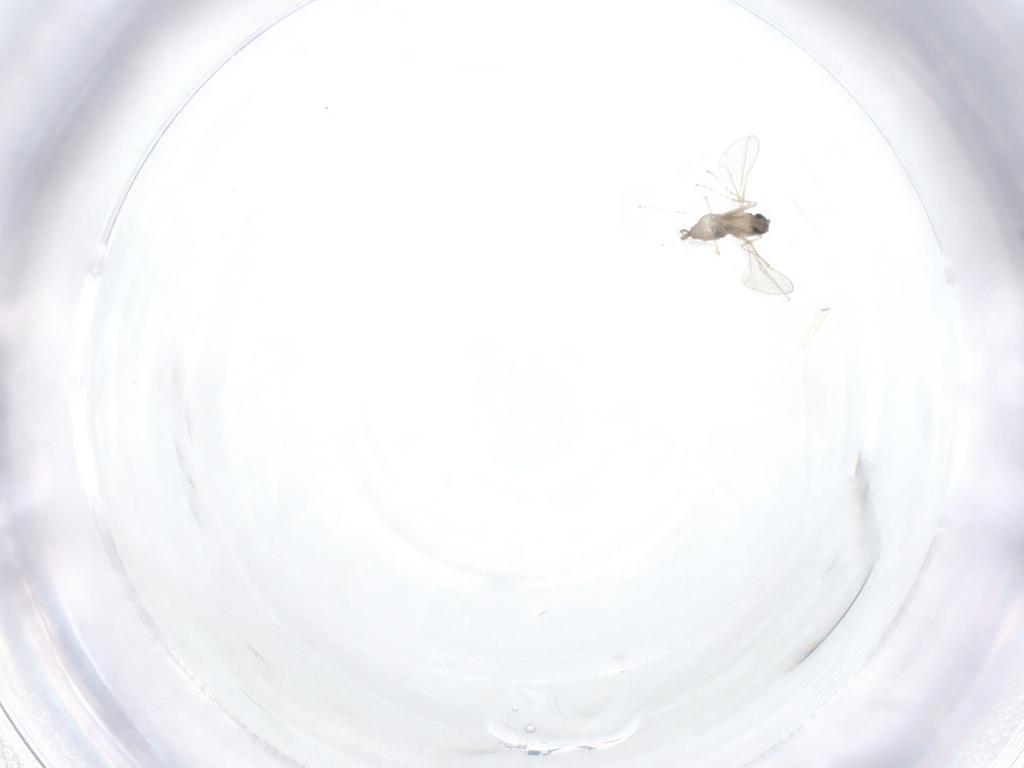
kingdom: Animalia
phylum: Arthropoda
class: Insecta
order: Diptera
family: Cecidomyiidae
